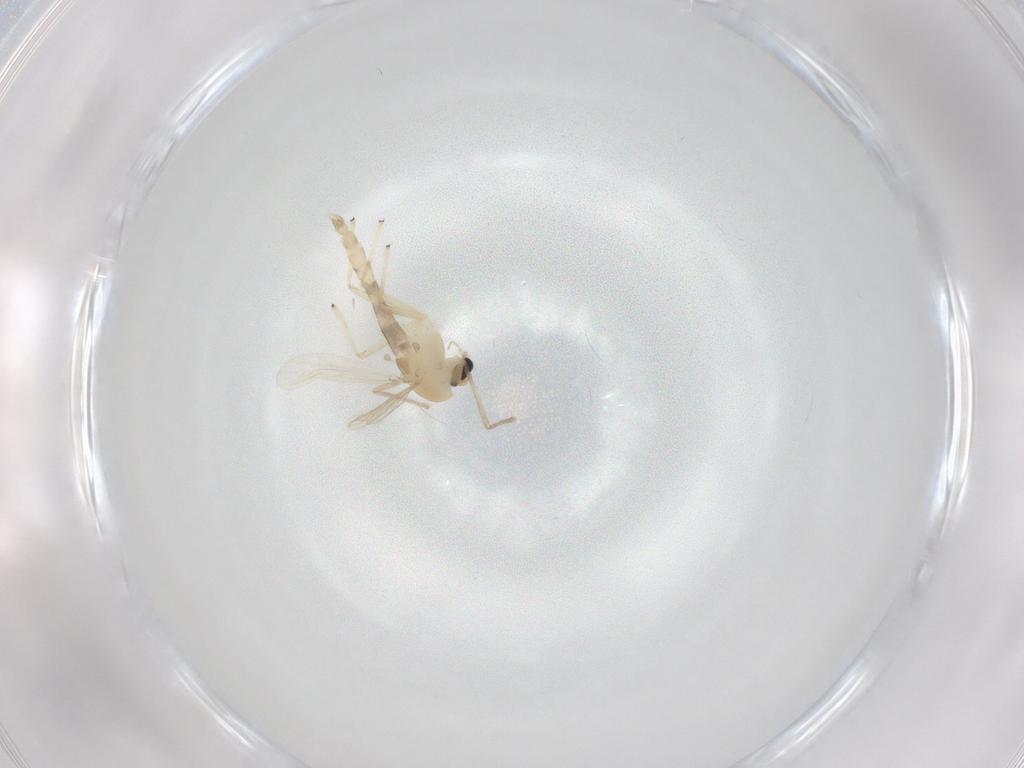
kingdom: Animalia
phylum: Arthropoda
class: Insecta
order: Diptera
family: Chironomidae
